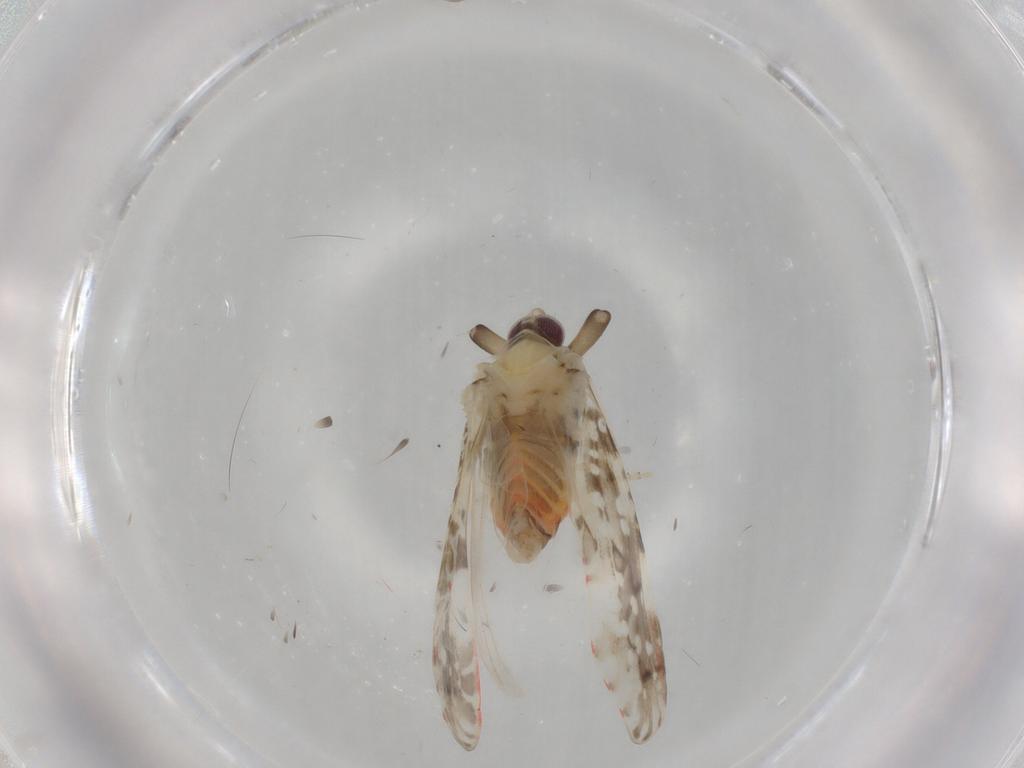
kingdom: Animalia
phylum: Arthropoda
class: Insecta
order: Hemiptera
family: Derbidae
